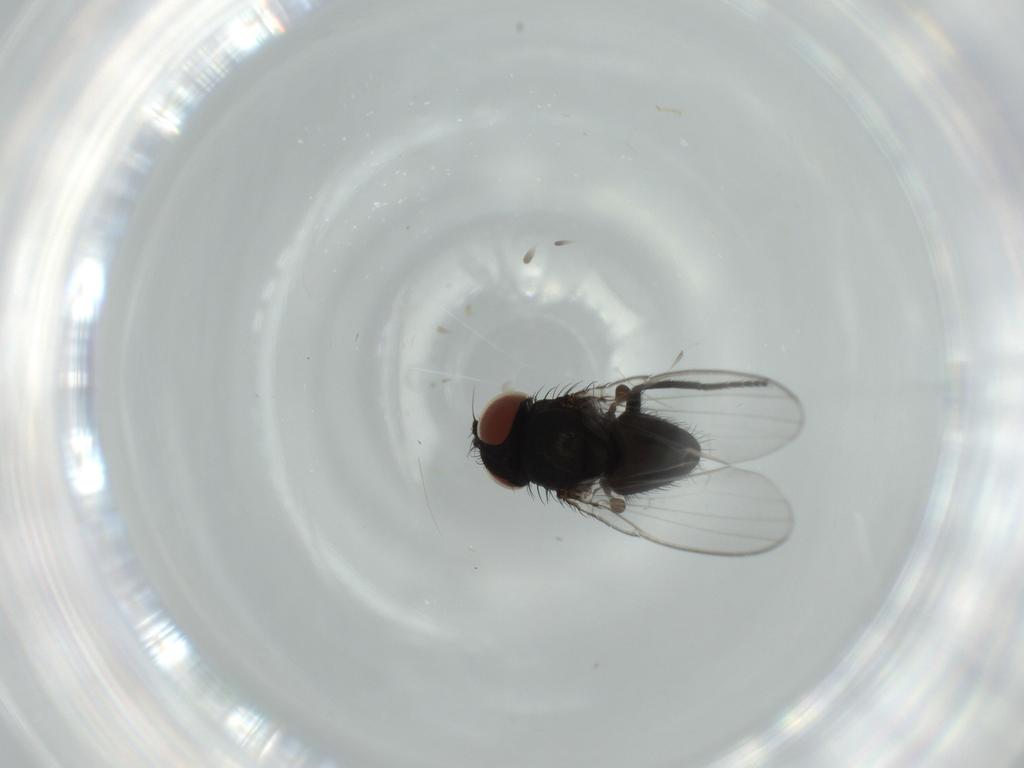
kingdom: Animalia
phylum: Arthropoda
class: Insecta
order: Diptera
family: Milichiidae
